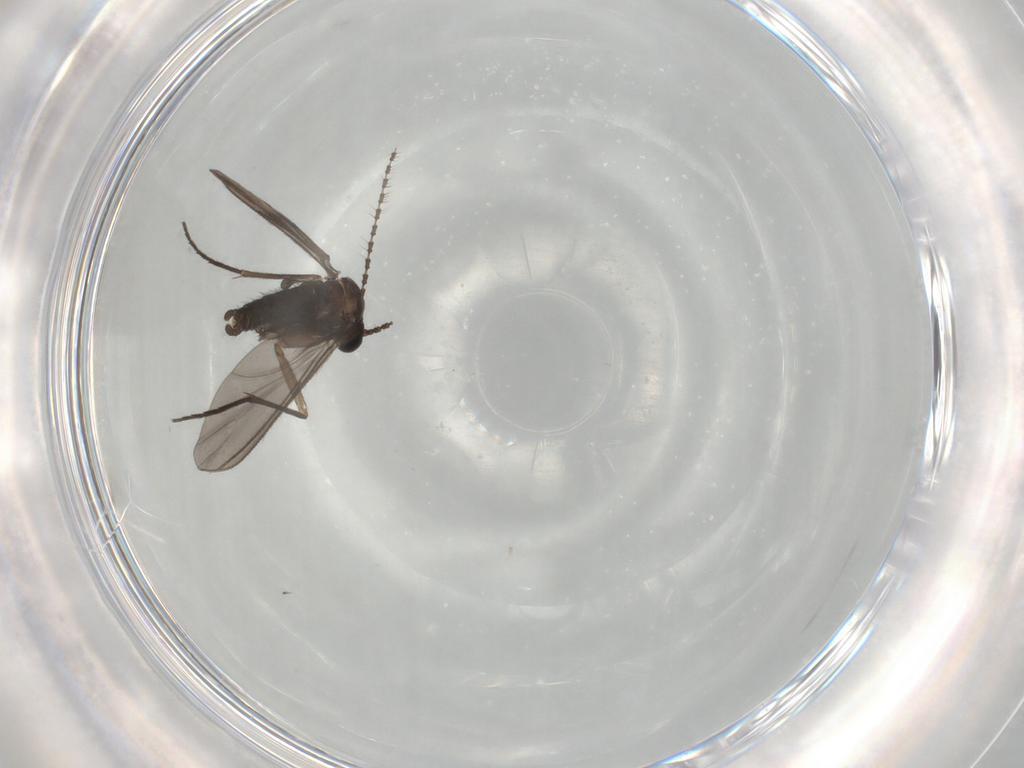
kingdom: Animalia
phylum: Arthropoda
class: Insecta
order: Diptera
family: Sciaridae
